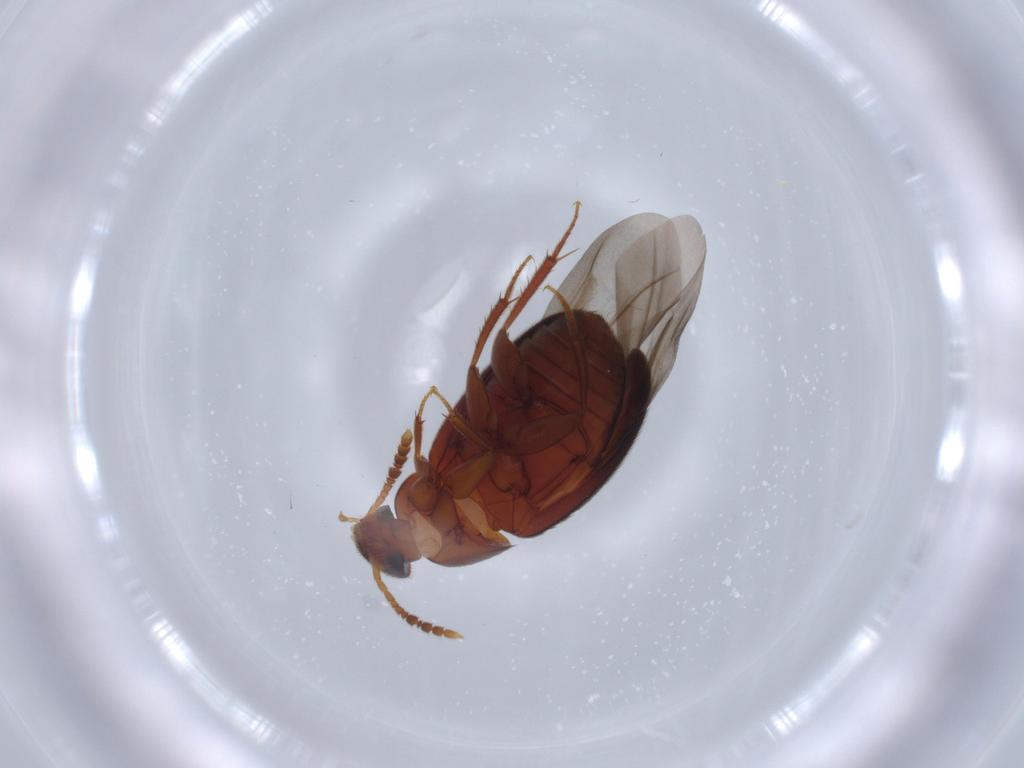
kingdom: Animalia
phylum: Arthropoda
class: Insecta
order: Coleoptera
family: Leiodidae
